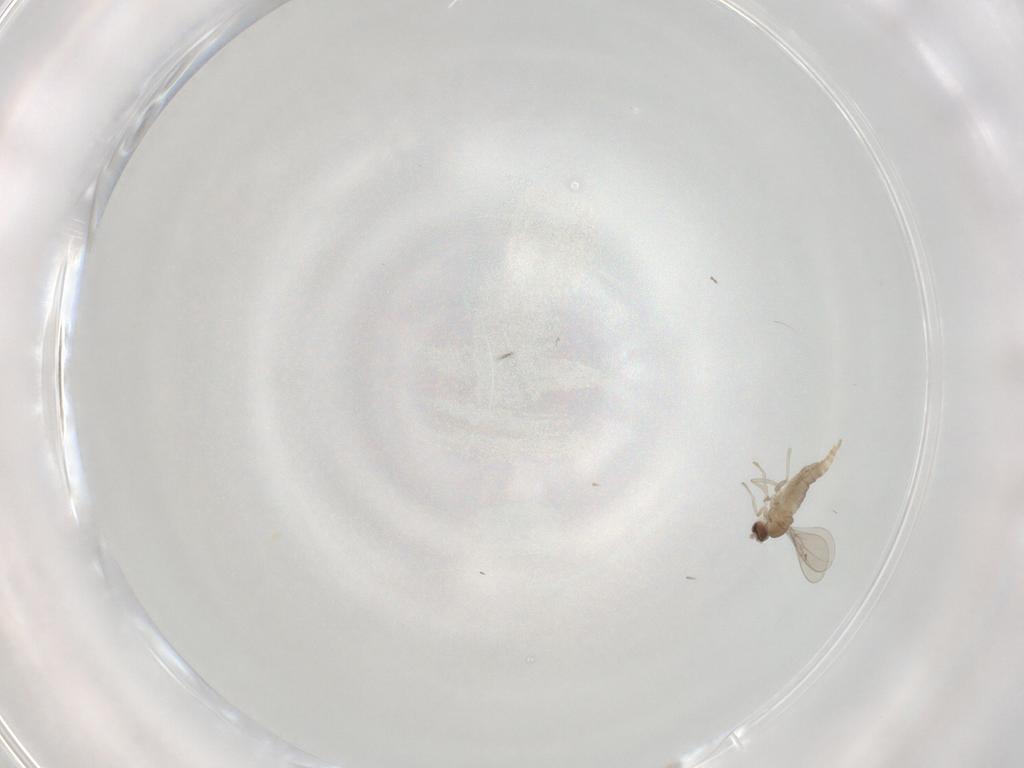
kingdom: Animalia
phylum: Arthropoda
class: Insecta
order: Diptera
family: Cecidomyiidae
